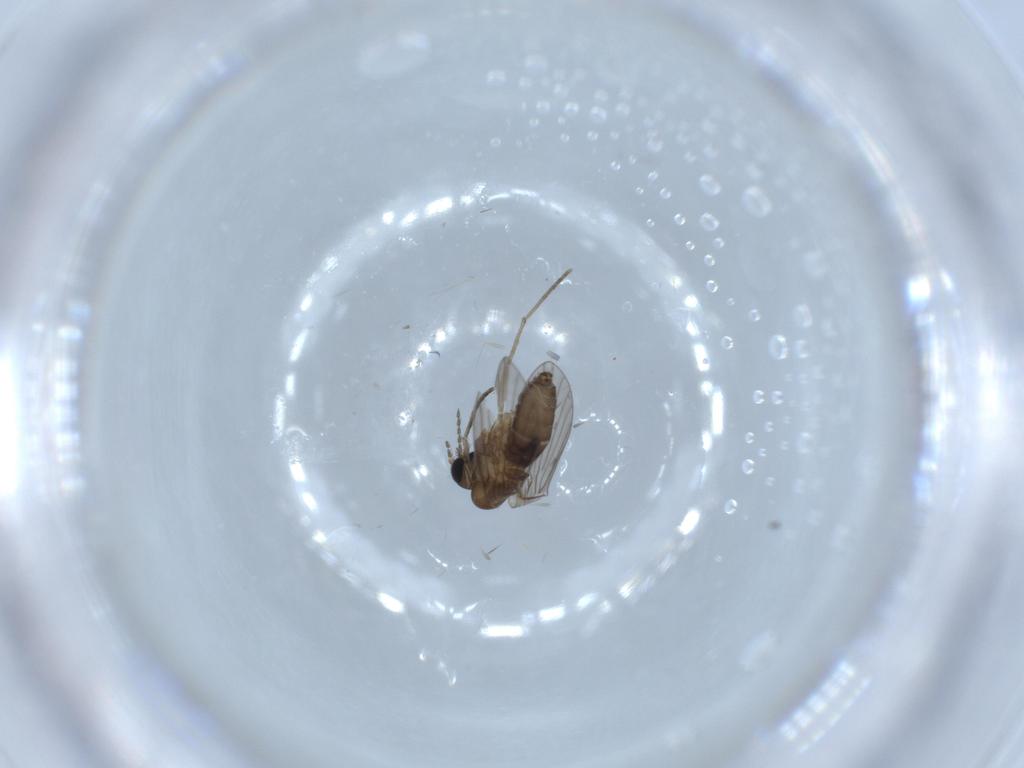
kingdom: Animalia
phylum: Arthropoda
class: Insecta
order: Diptera
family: Psychodidae
